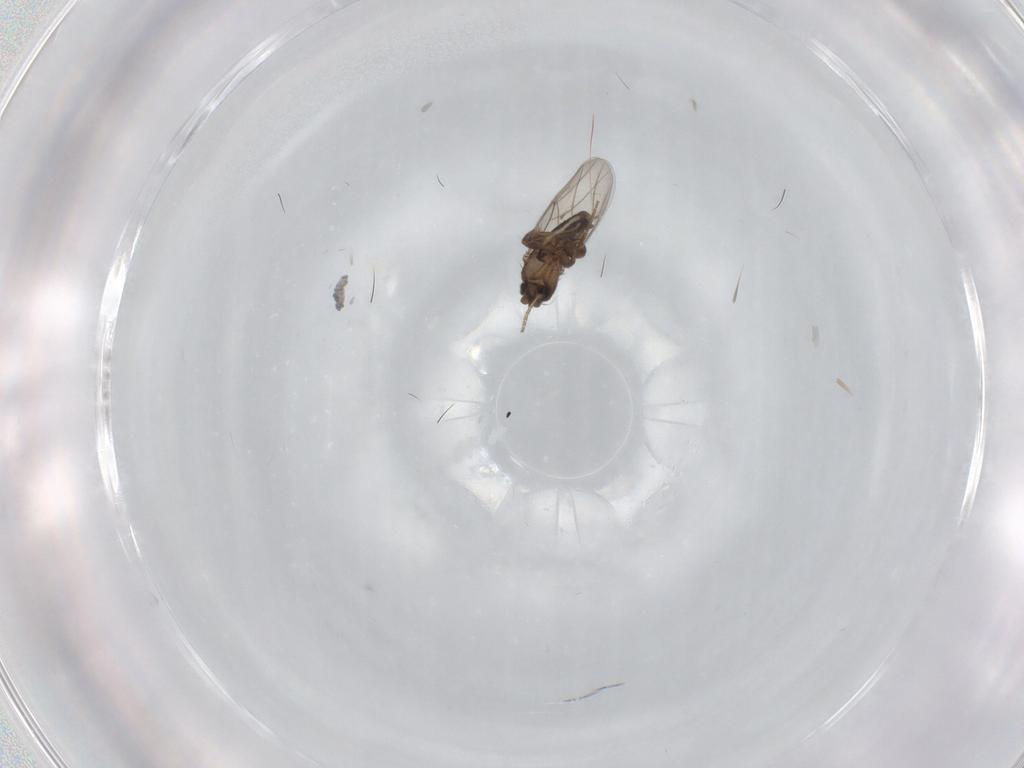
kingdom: Animalia
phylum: Arthropoda
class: Insecta
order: Diptera
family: Phoridae
